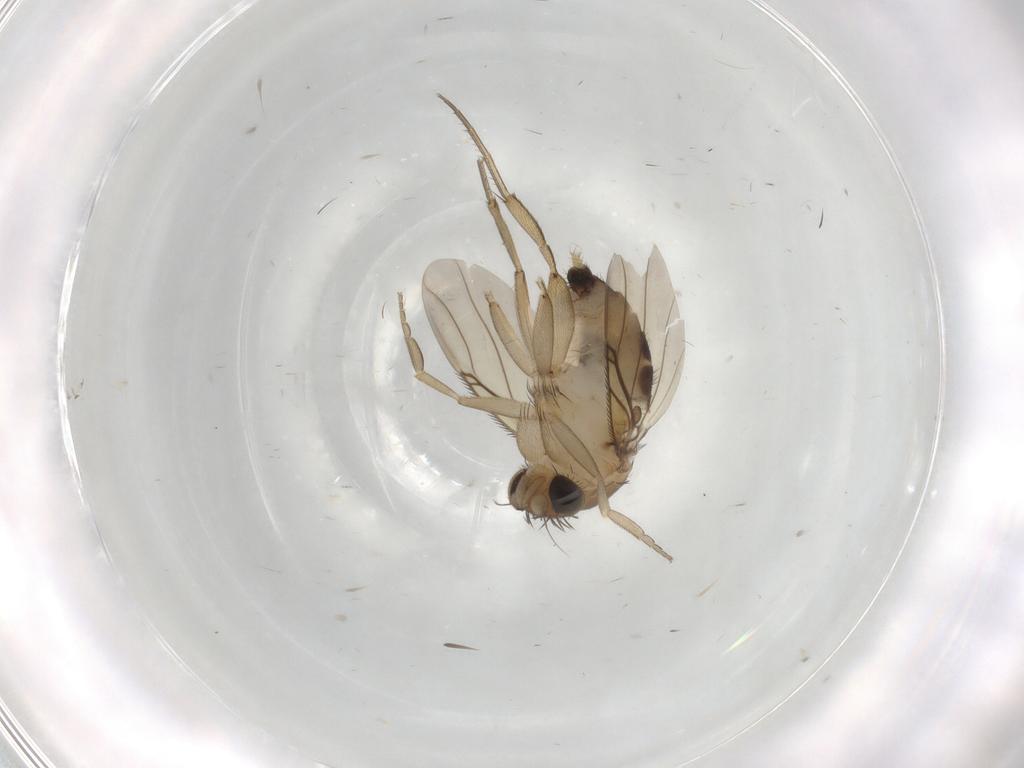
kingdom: Animalia
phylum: Arthropoda
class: Insecta
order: Diptera
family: Phoridae
